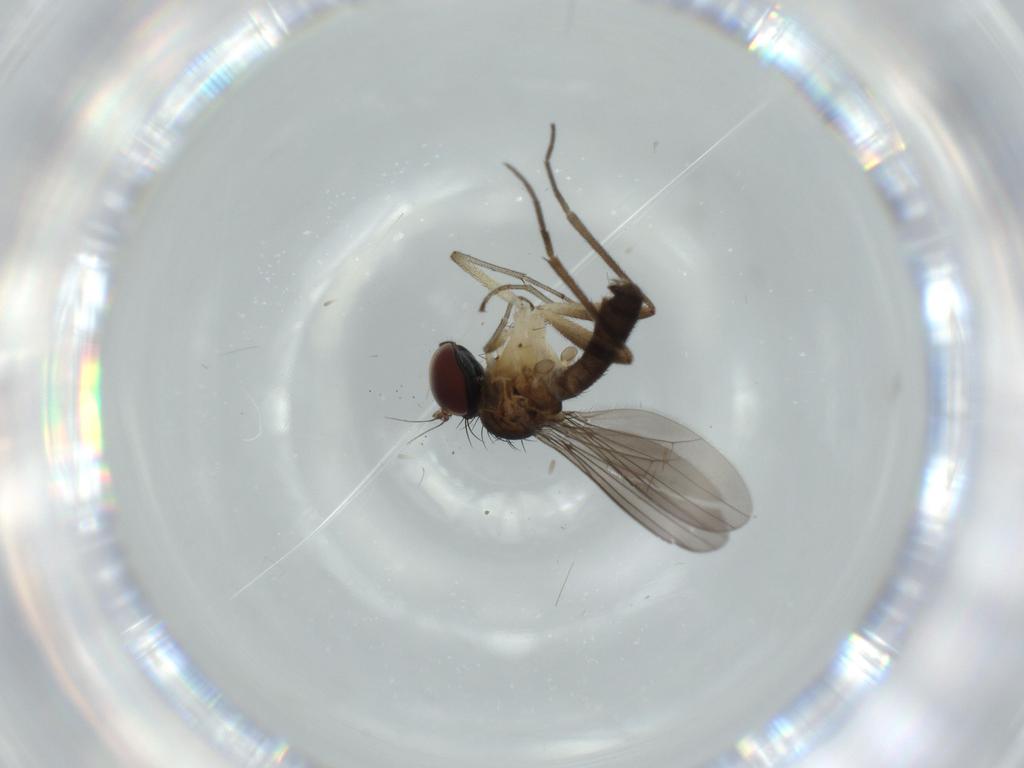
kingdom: Animalia
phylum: Arthropoda
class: Insecta
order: Diptera
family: Dolichopodidae
